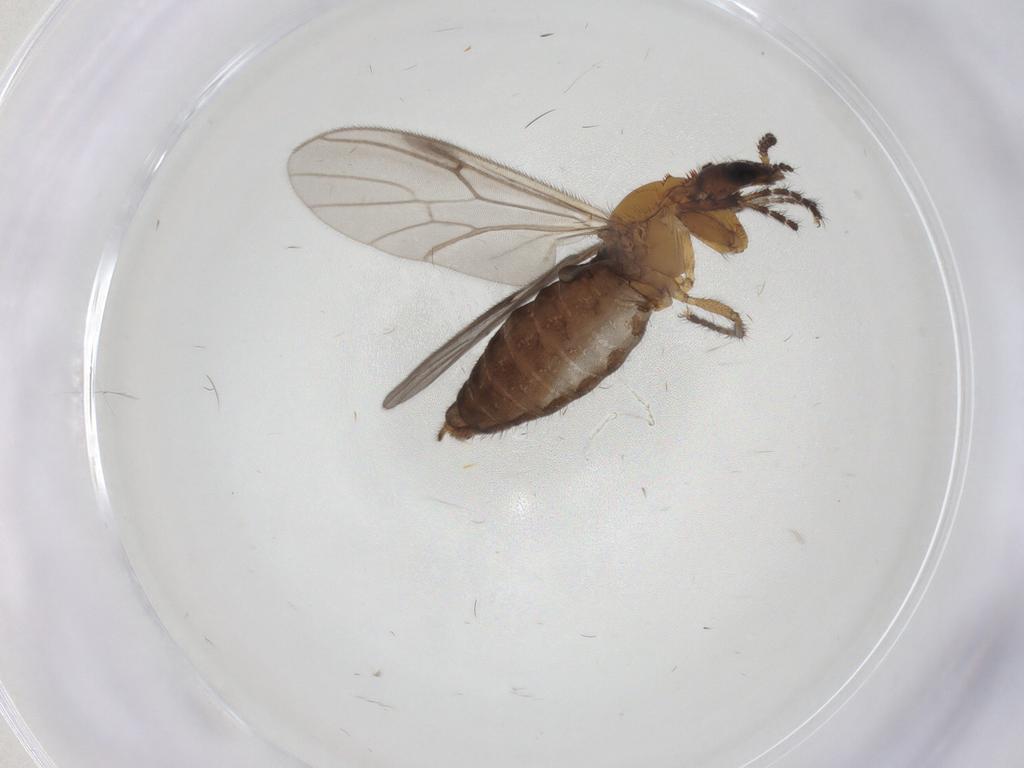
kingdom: Animalia
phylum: Arthropoda
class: Insecta
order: Diptera
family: Bibionidae
